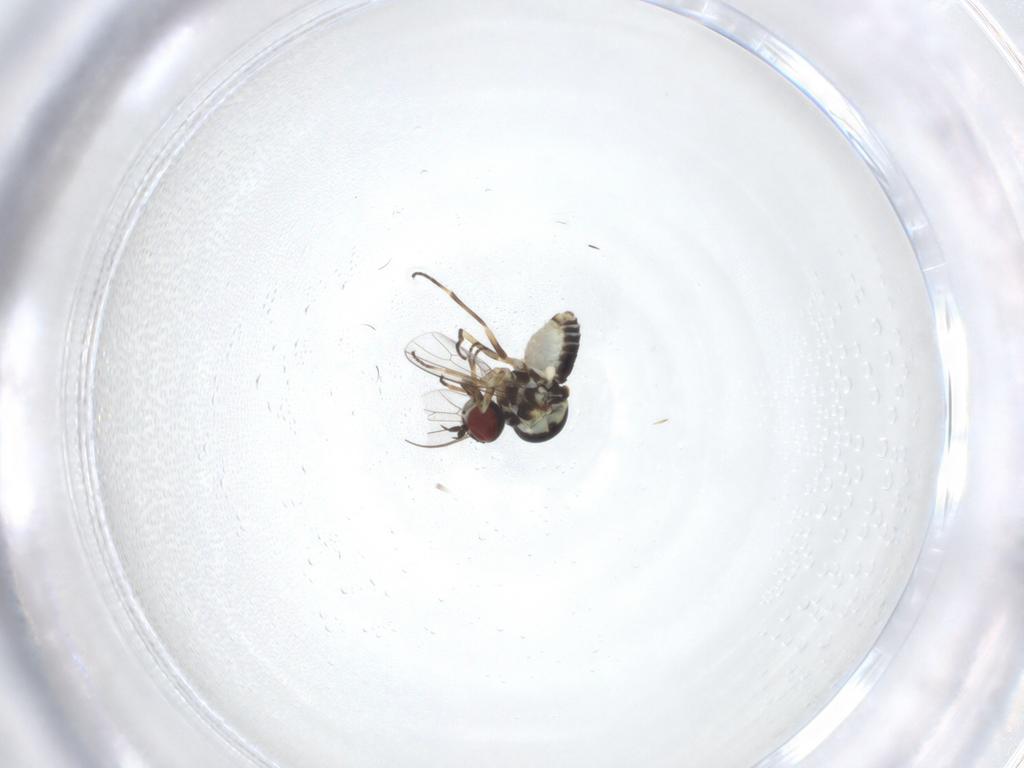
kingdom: Animalia
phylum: Arthropoda
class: Insecta
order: Diptera
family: Bombyliidae
